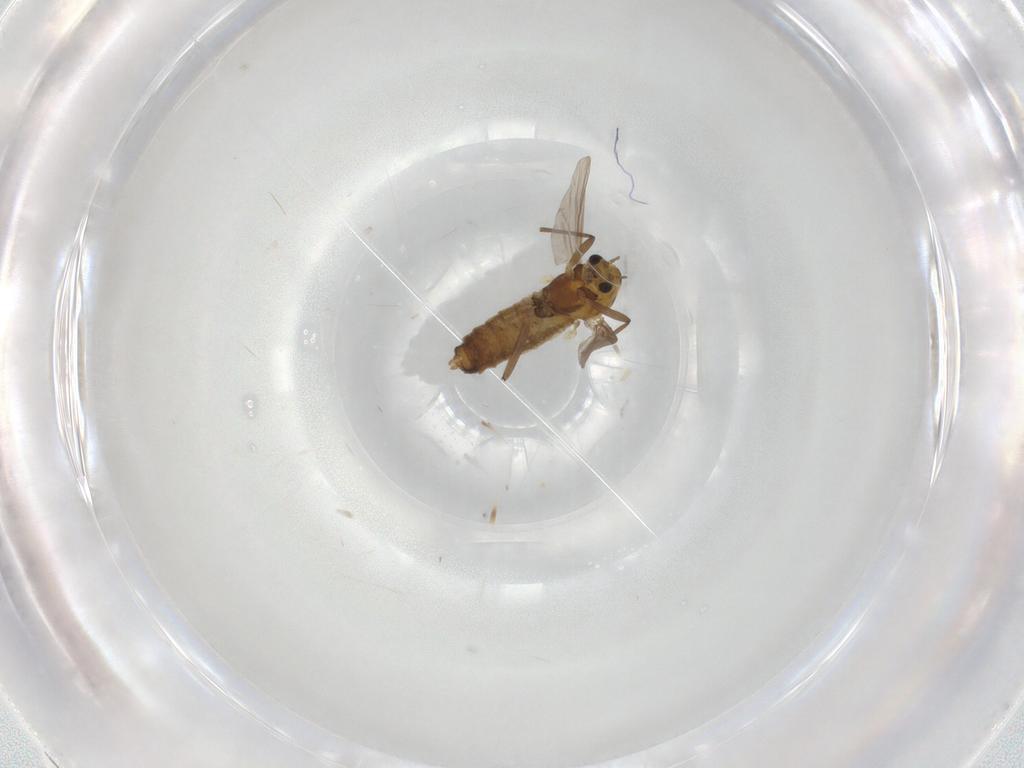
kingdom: Animalia
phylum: Arthropoda
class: Insecta
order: Diptera
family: Chironomidae
